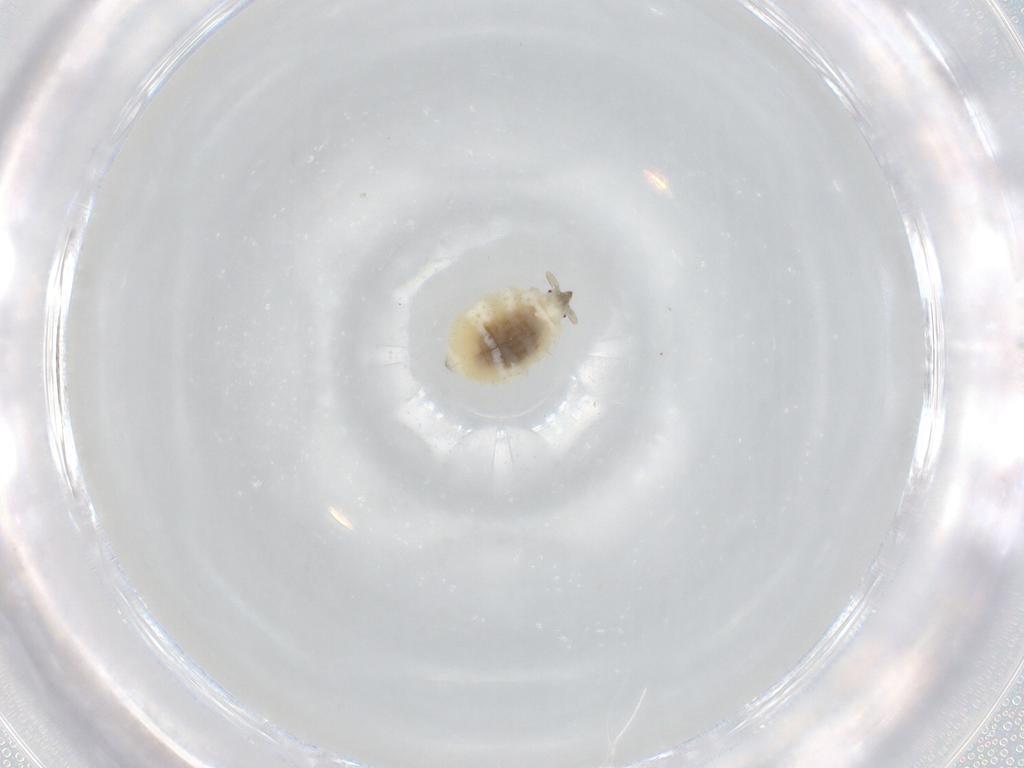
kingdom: Animalia
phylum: Arthropoda
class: Insecta
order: Neuroptera
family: Coniopterygidae
